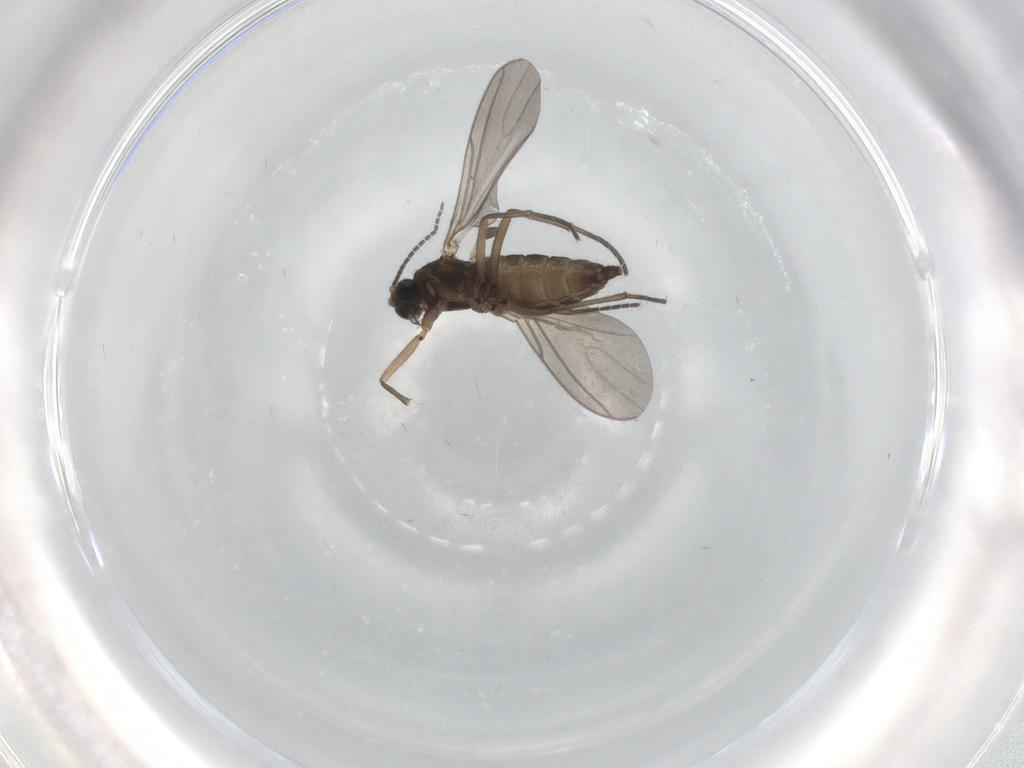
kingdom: Animalia
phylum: Arthropoda
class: Insecta
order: Diptera
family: Sciaridae
